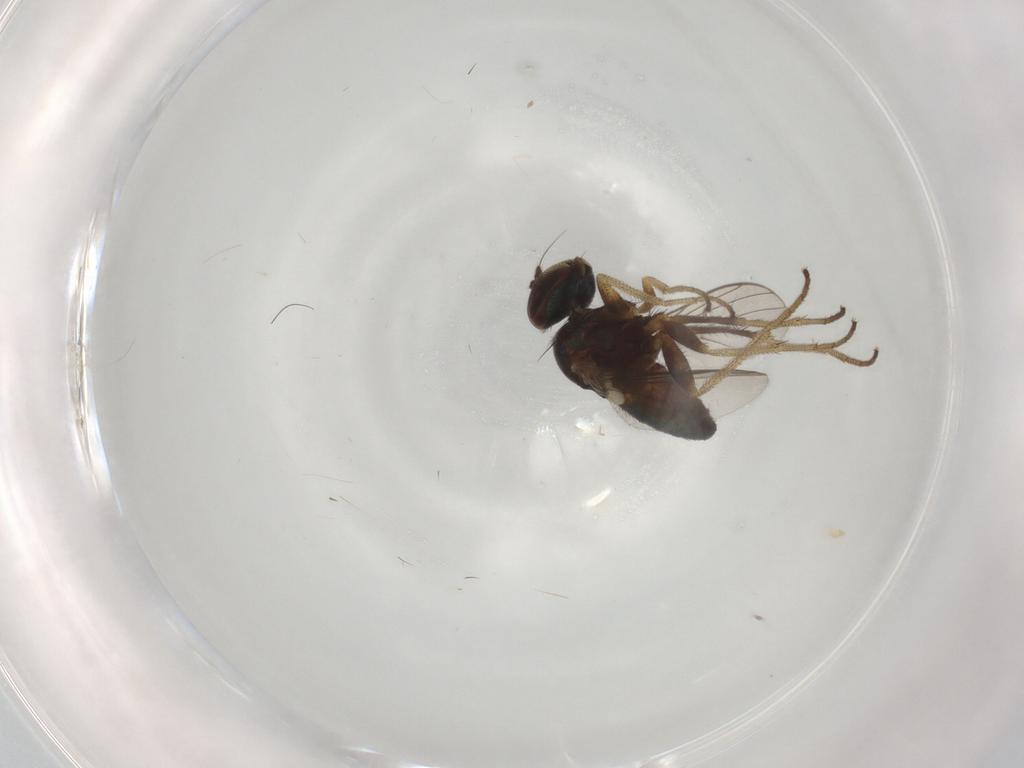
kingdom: Animalia
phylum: Arthropoda
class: Insecta
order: Diptera
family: Dolichopodidae
